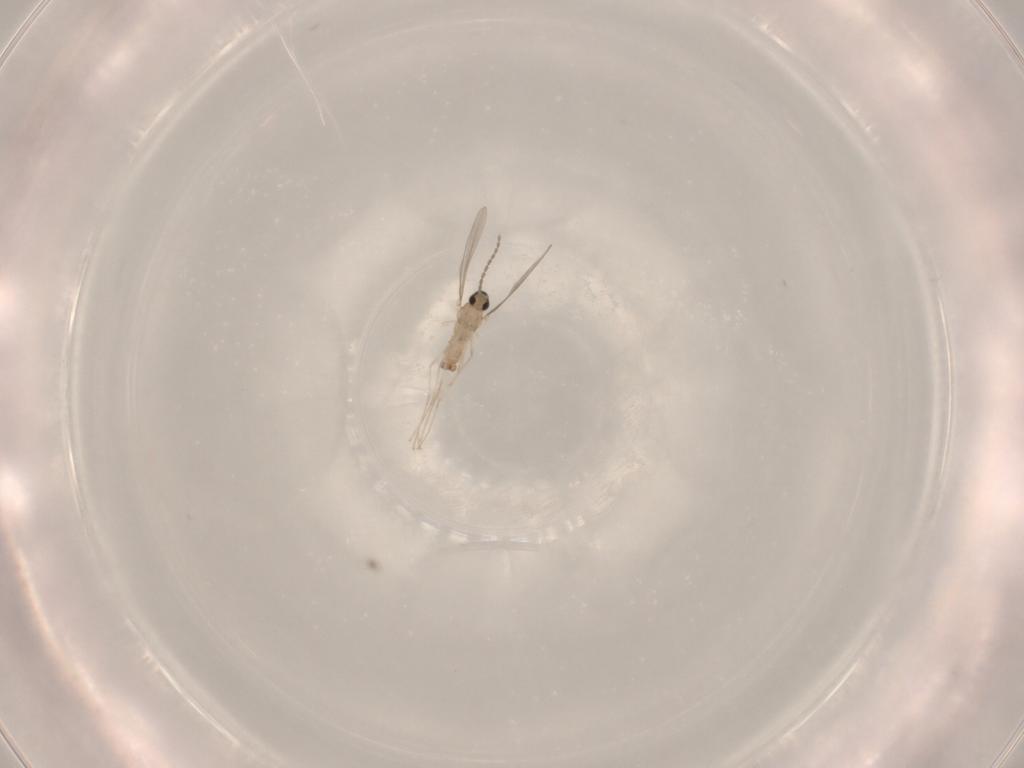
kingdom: Animalia
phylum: Arthropoda
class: Insecta
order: Diptera
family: Cecidomyiidae
